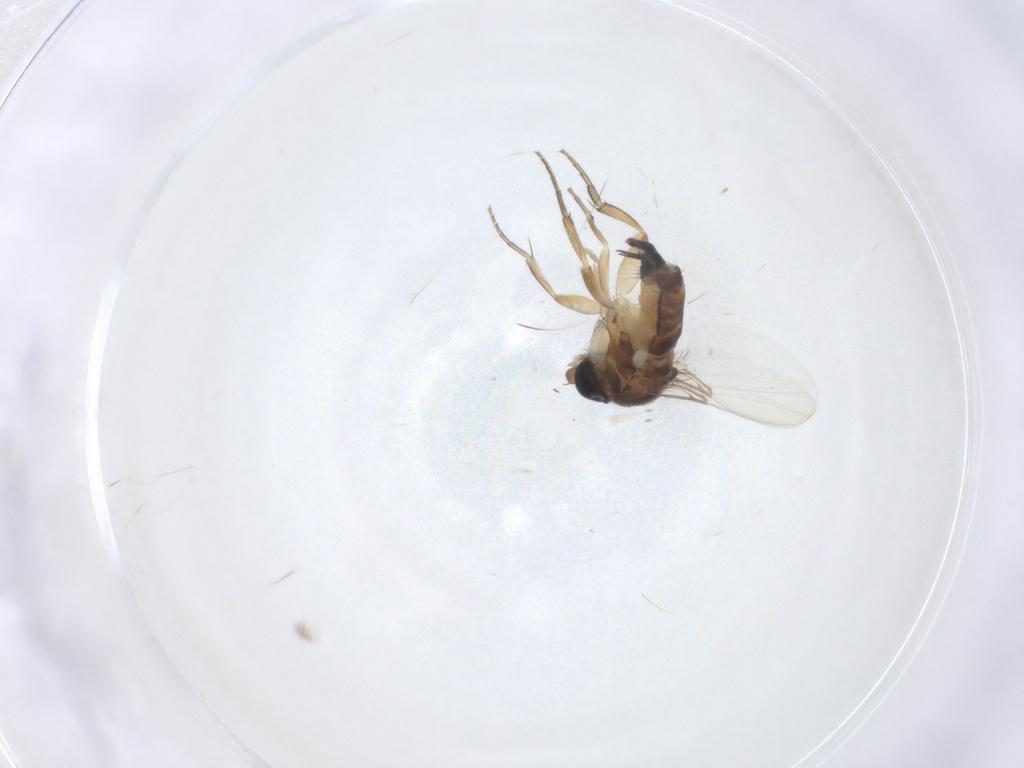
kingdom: Animalia
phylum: Arthropoda
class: Insecta
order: Diptera
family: Phoridae
